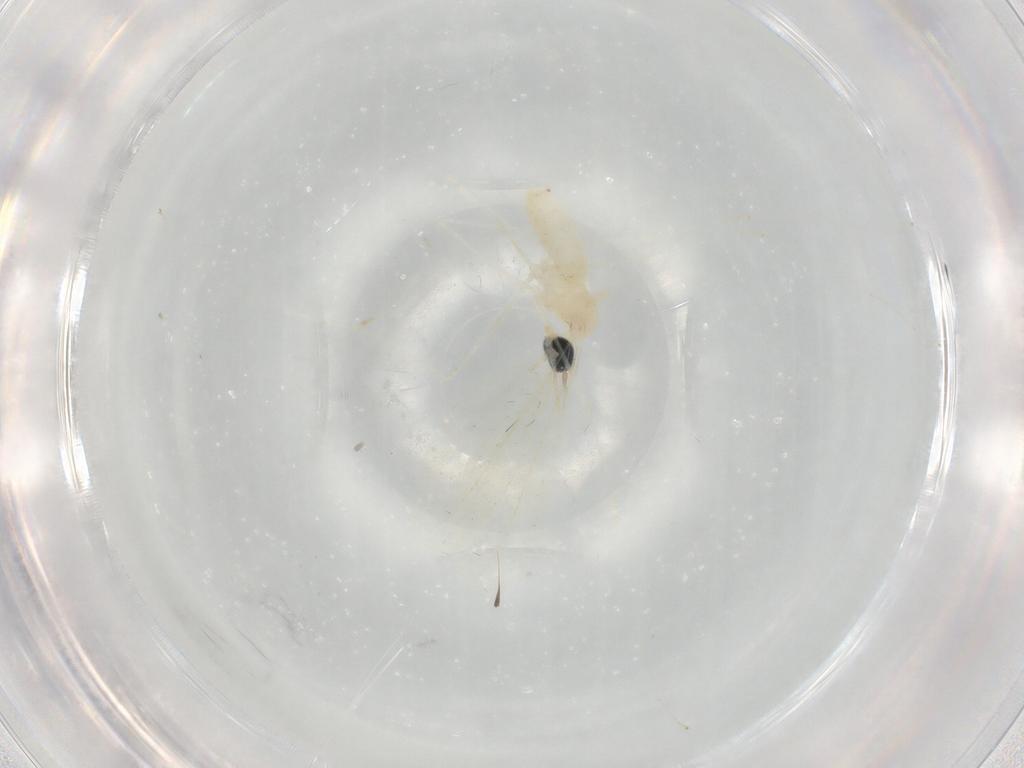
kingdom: Animalia
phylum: Arthropoda
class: Insecta
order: Diptera
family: Cecidomyiidae
